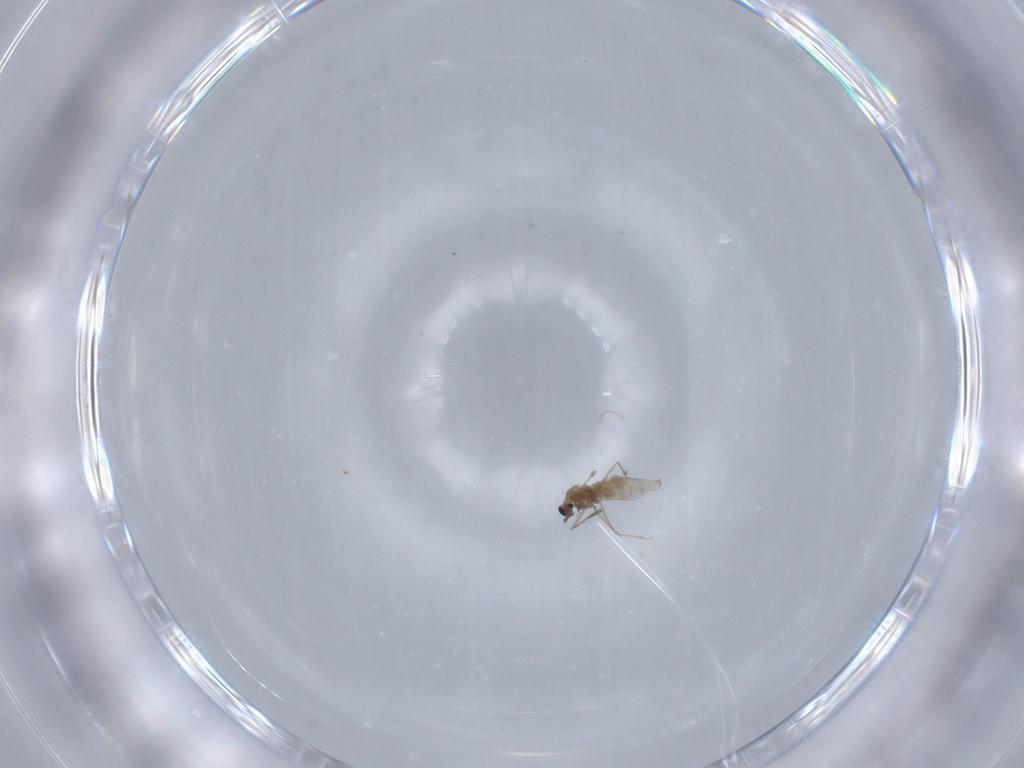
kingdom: Animalia
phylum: Arthropoda
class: Insecta
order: Diptera
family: Cecidomyiidae
